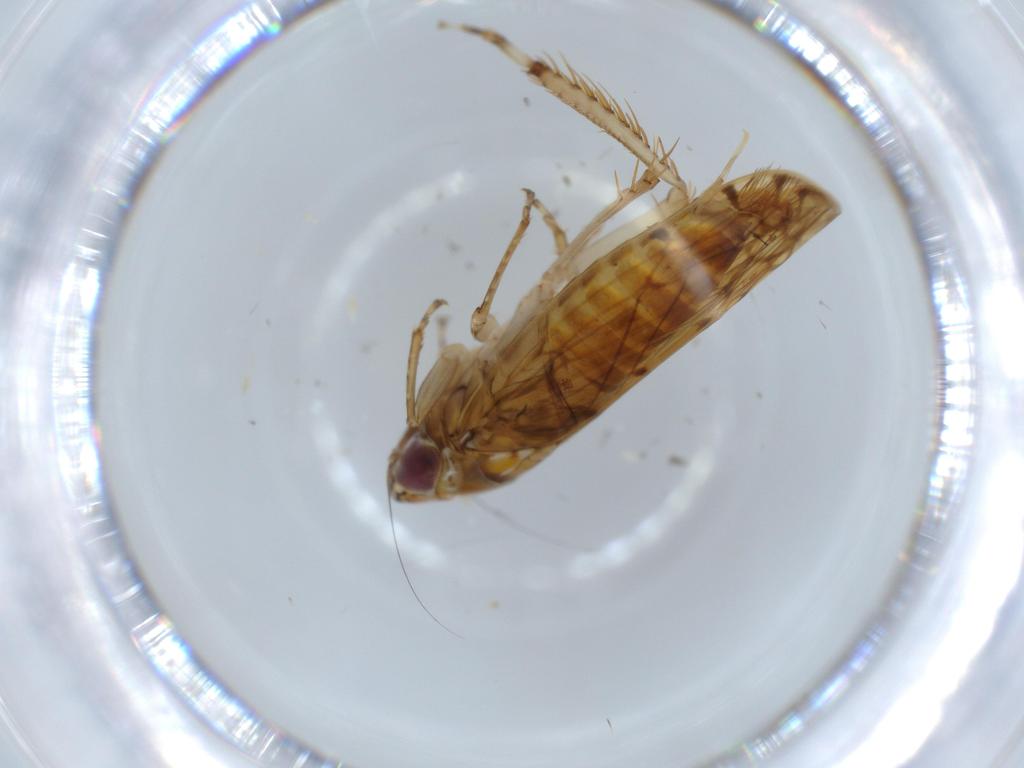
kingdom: Animalia
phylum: Arthropoda
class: Insecta
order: Hemiptera
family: Cicadellidae
